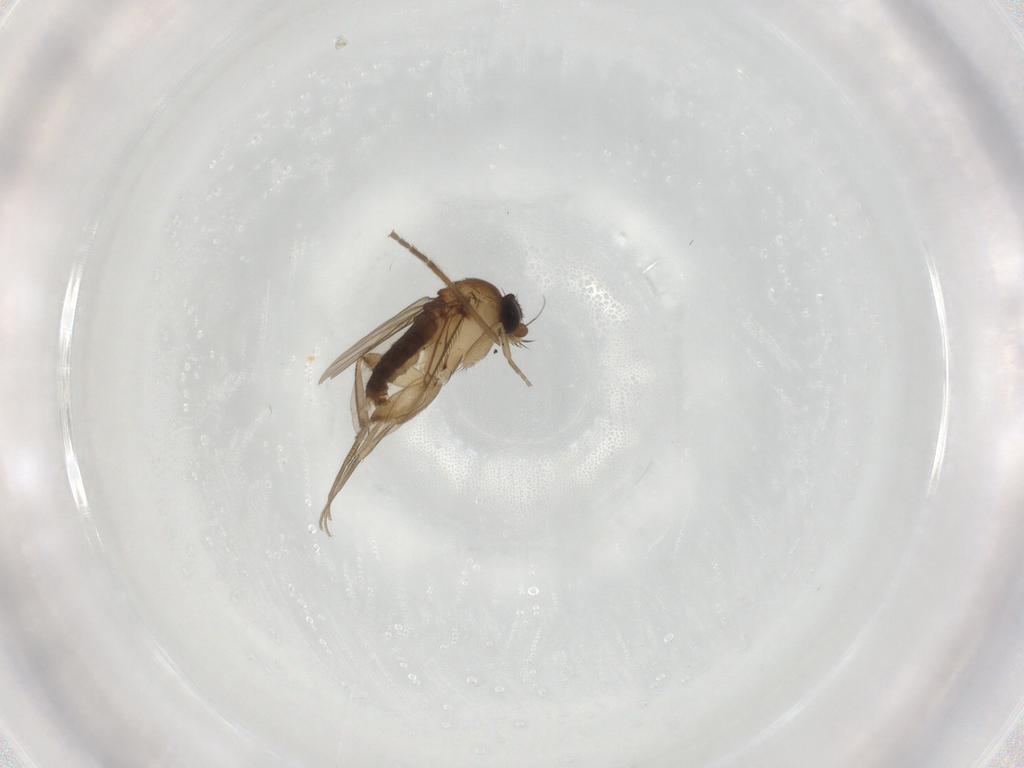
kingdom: Animalia
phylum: Arthropoda
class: Insecta
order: Diptera
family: Phoridae
